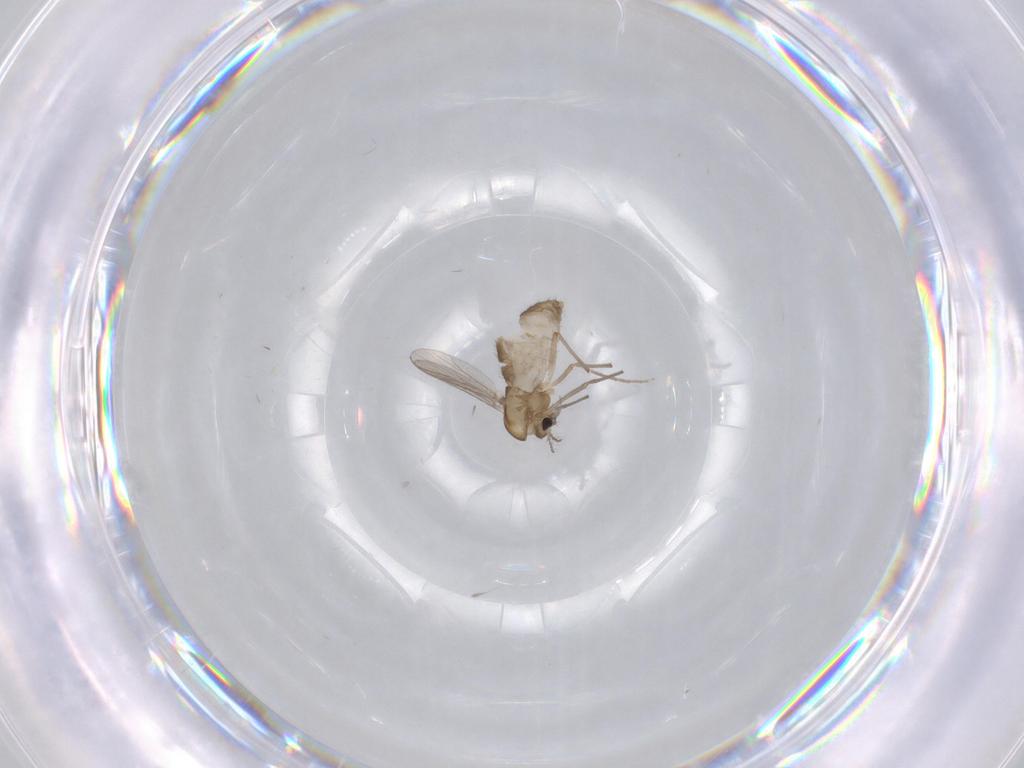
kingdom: Animalia
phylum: Arthropoda
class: Insecta
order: Diptera
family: Chironomidae
